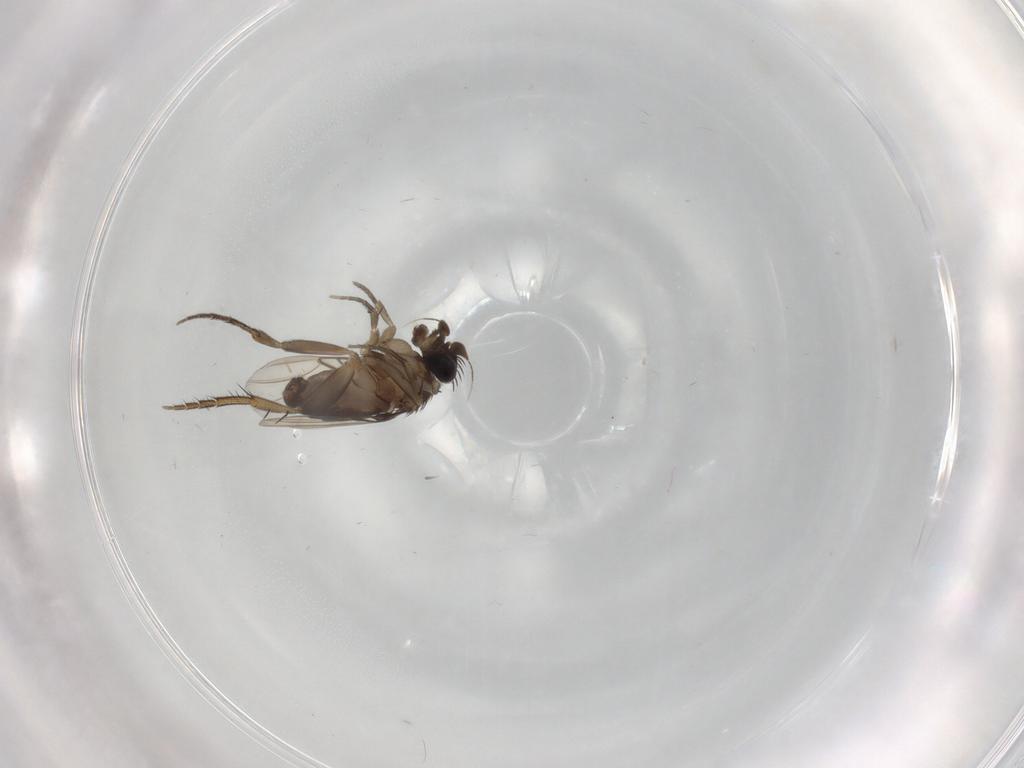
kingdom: Animalia
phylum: Arthropoda
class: Insecta
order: Diptera
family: Phoridae
